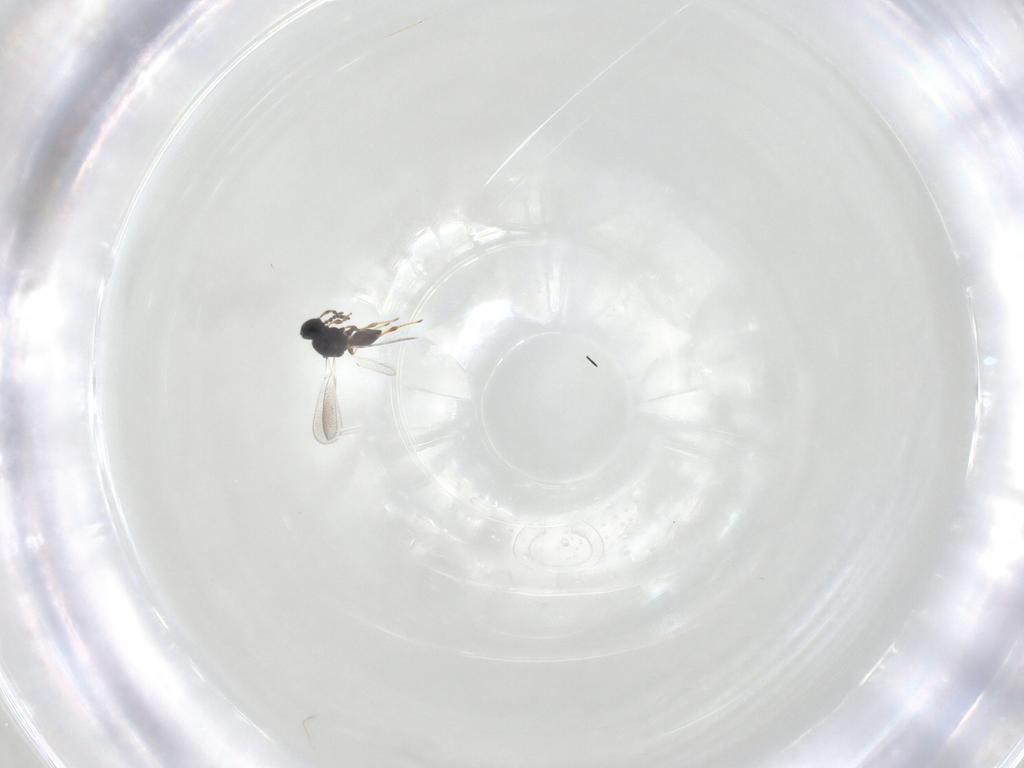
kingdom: Animalia
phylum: Arthropoda
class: Insecta
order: Hymenoptera
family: Platygastridae
